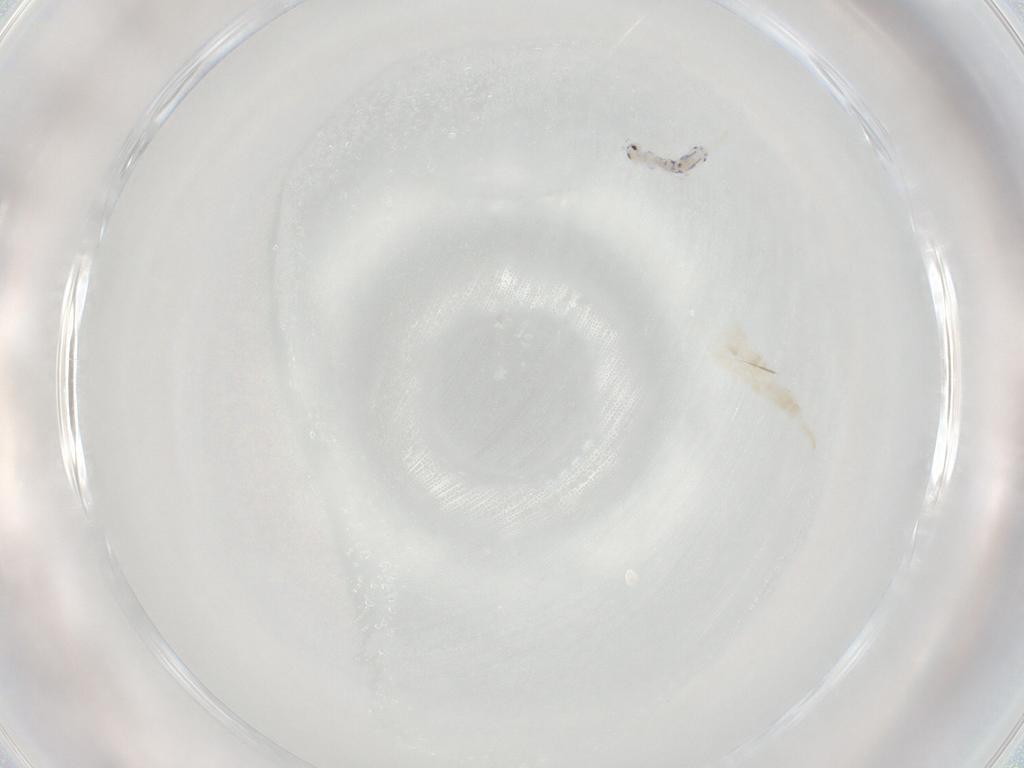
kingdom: Animalia
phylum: Arthropoda
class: Collembola
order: Entomobryomorpha
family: Entomobryidae
